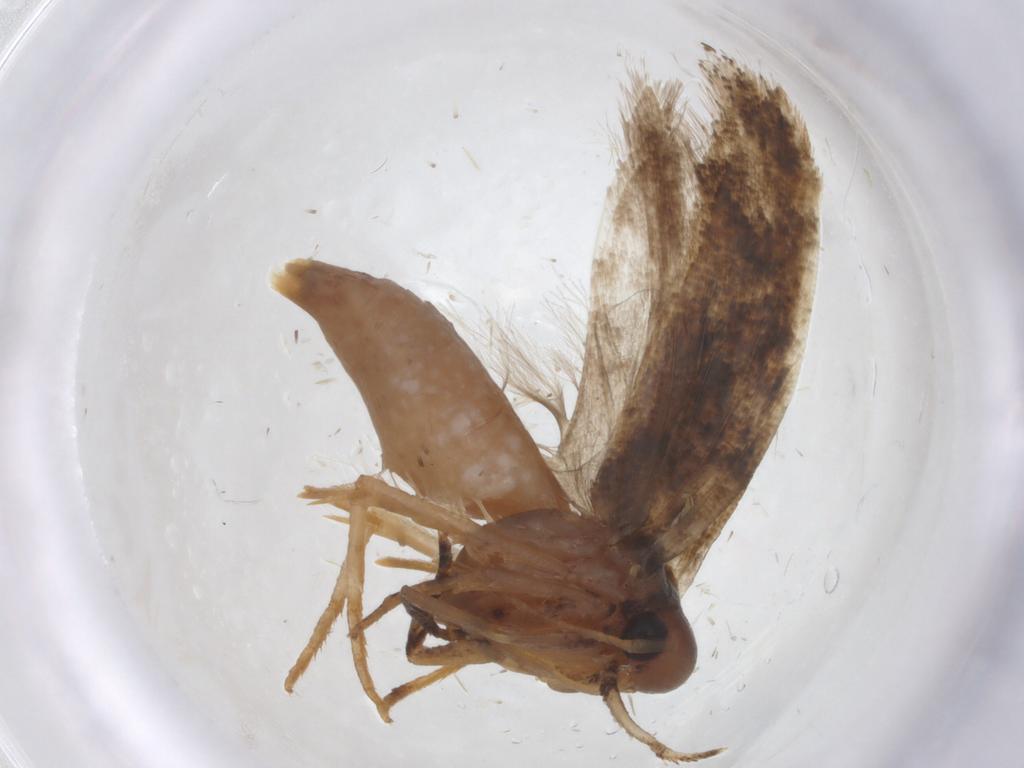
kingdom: Animalia
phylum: Arthropoda
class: Insecta
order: Lepidoptera
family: Gelechiidae
